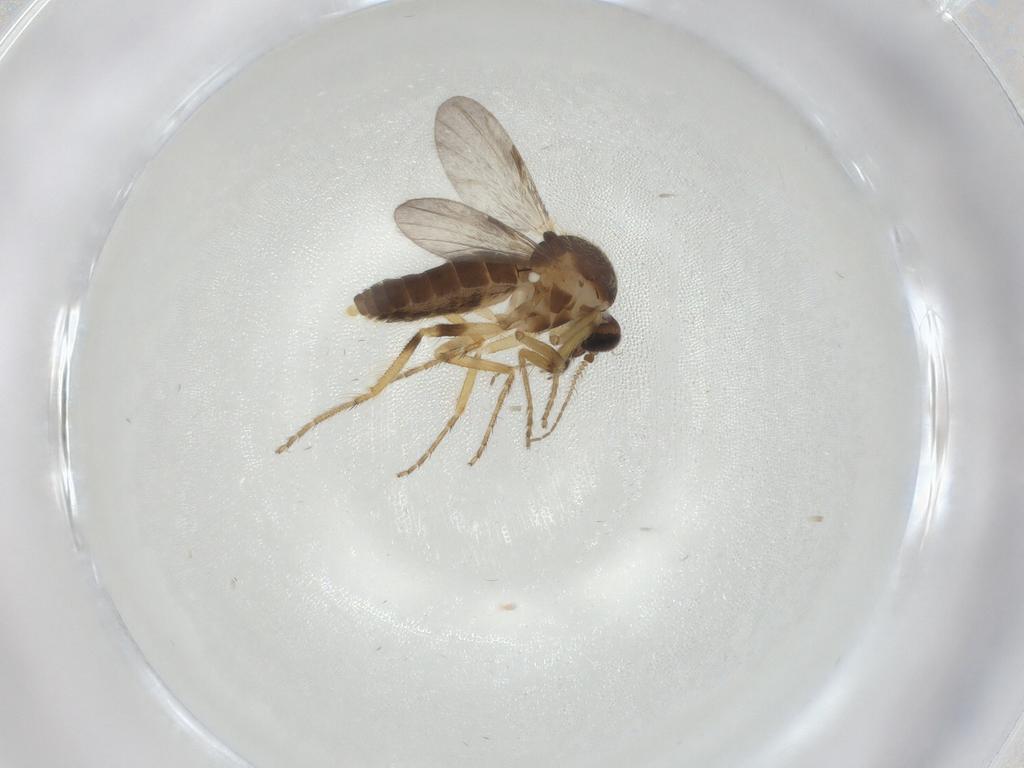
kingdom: Animalia
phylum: Arthropoda
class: Insecta
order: Diptera
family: Ceratopogonidae
